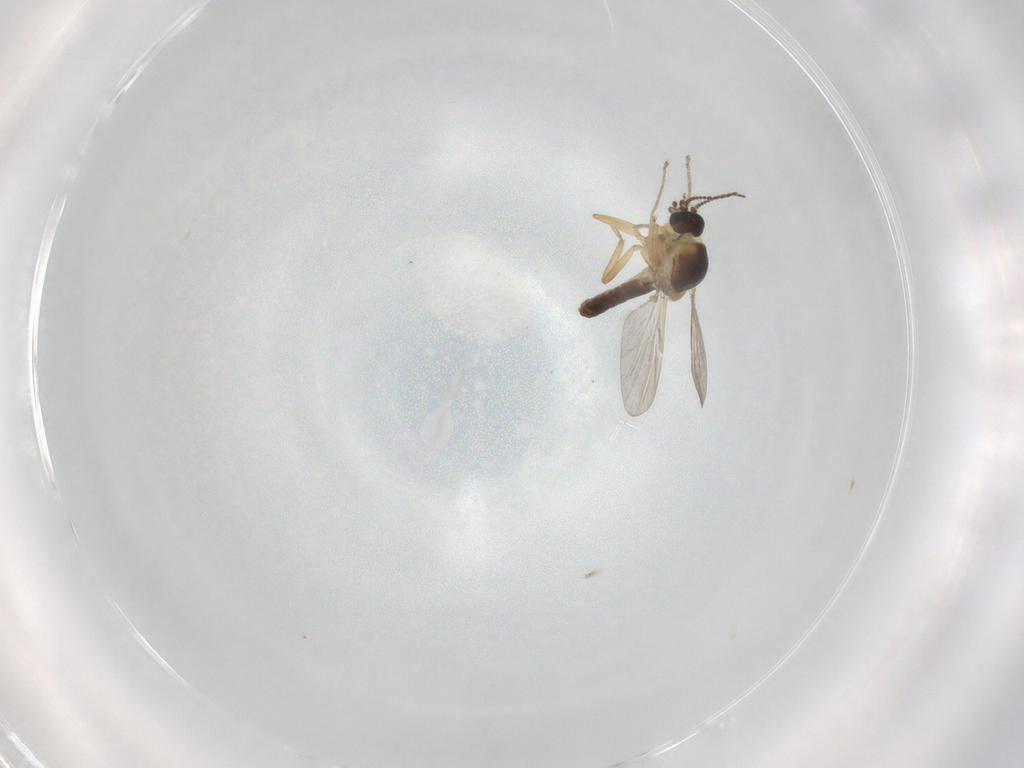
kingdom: Animalia
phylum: Arthropoda
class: Insecta
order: Diptera
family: Ceratopogonidae
